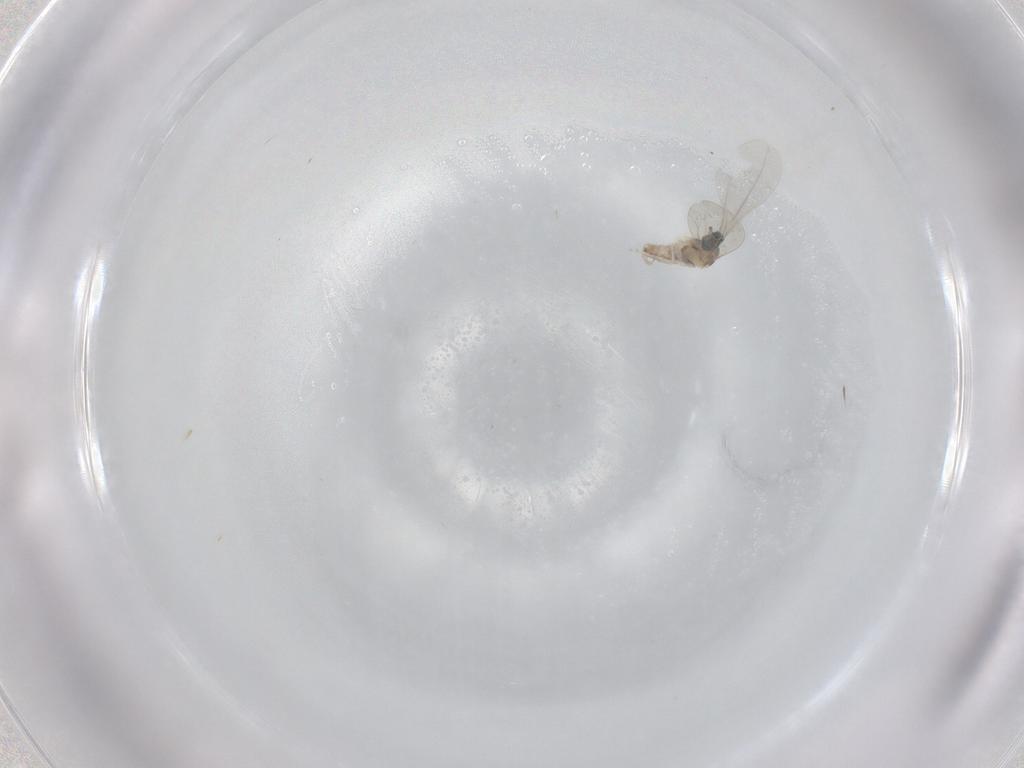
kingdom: Animalia
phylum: Arthropoda
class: Insecta
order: Diptera
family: Cecidomyiidae
